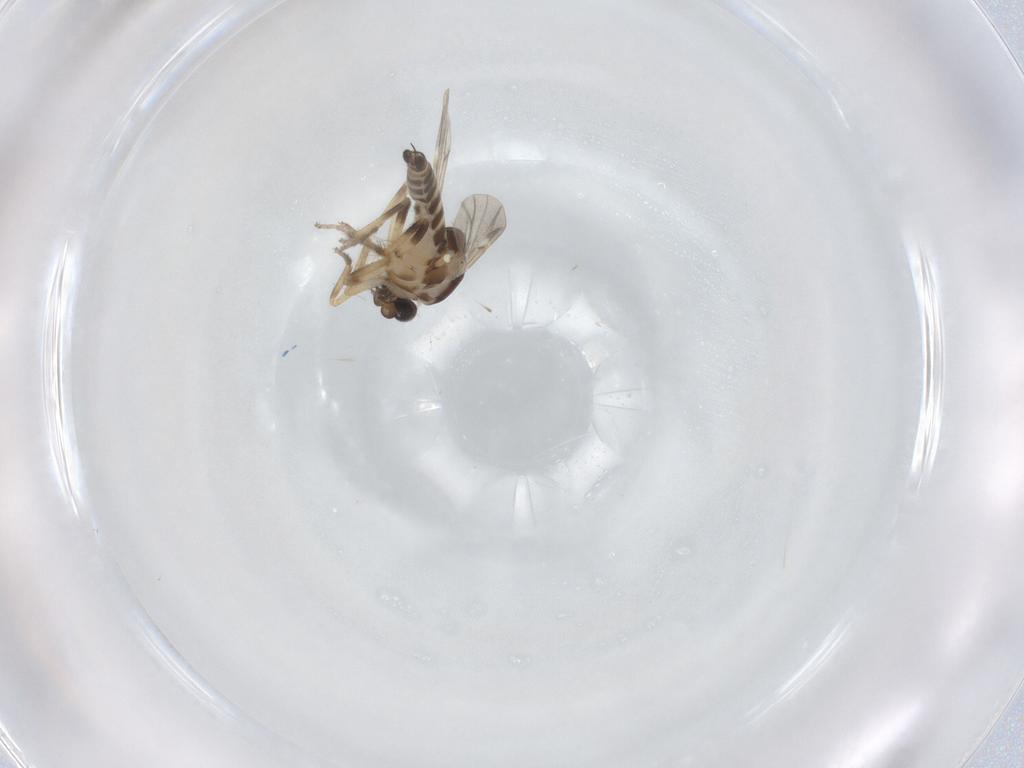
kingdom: Animalia
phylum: Arthropoda
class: Insecta
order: Diptera
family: Ceratopogonidae
